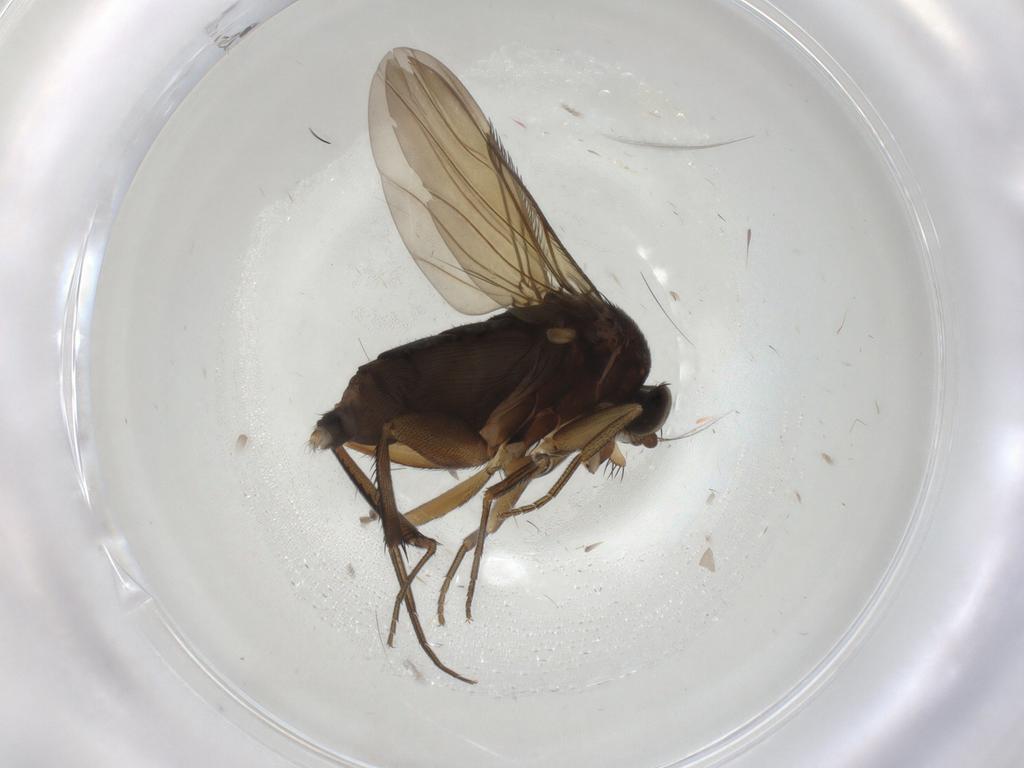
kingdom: Animalia
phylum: Arthropoda
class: Insecta
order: Diptera
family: Phoridae
